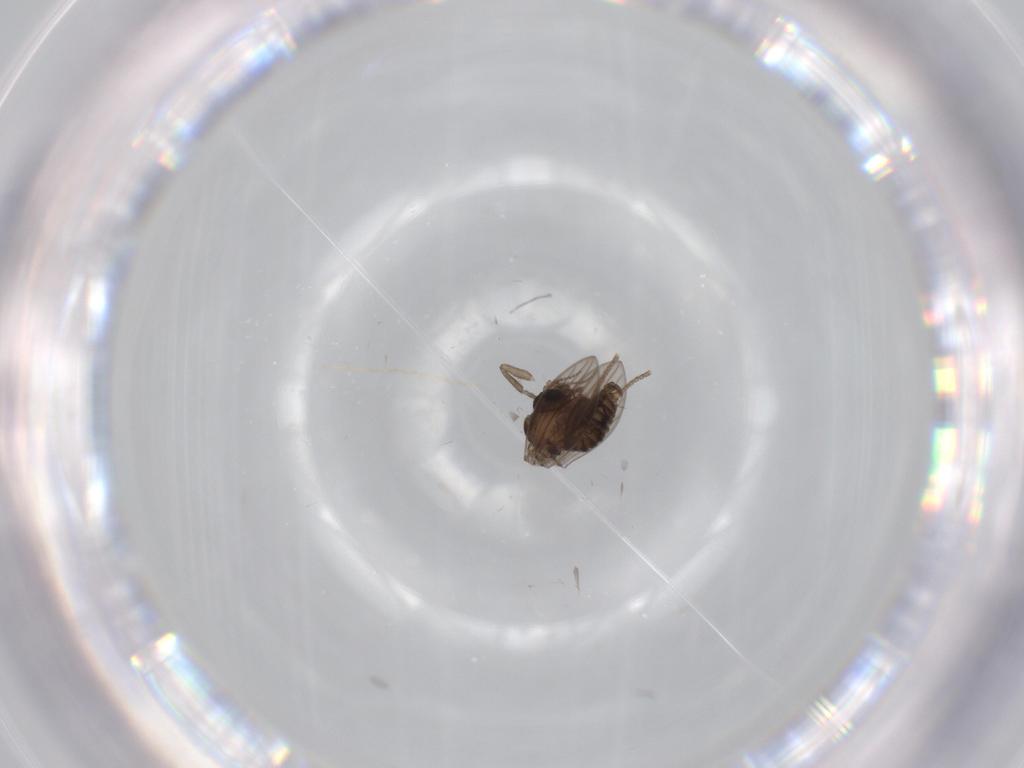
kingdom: Animalia
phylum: Arthropoda
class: Insecta
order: Diptera
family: Psychodidae
